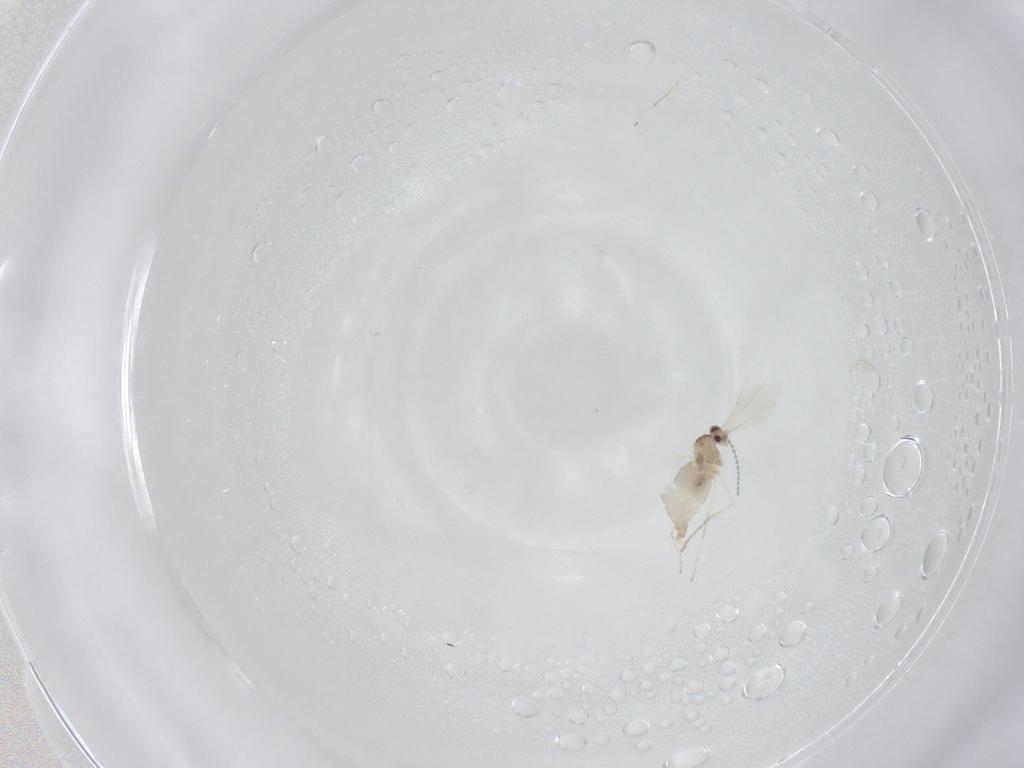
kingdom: Animalia
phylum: Arthropoda
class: Insecta
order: Diptera
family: Cecidomyiidae
